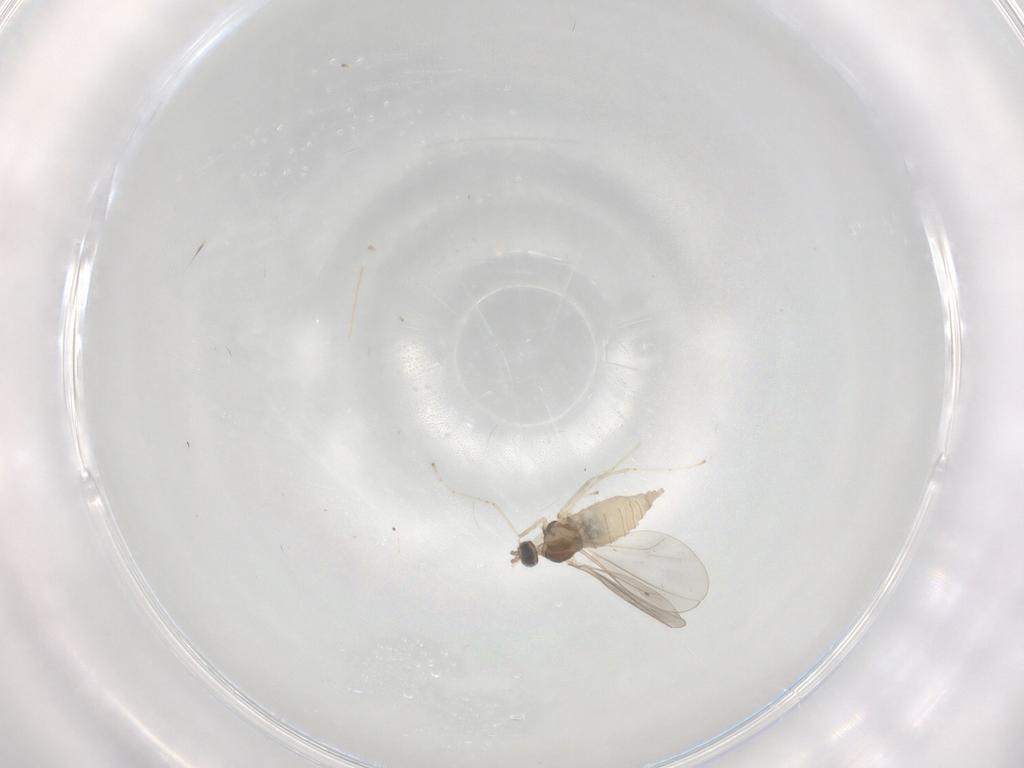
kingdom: Animalia
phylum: Arthropoda
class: Insecta
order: Diptera
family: Cecidomyiidae
